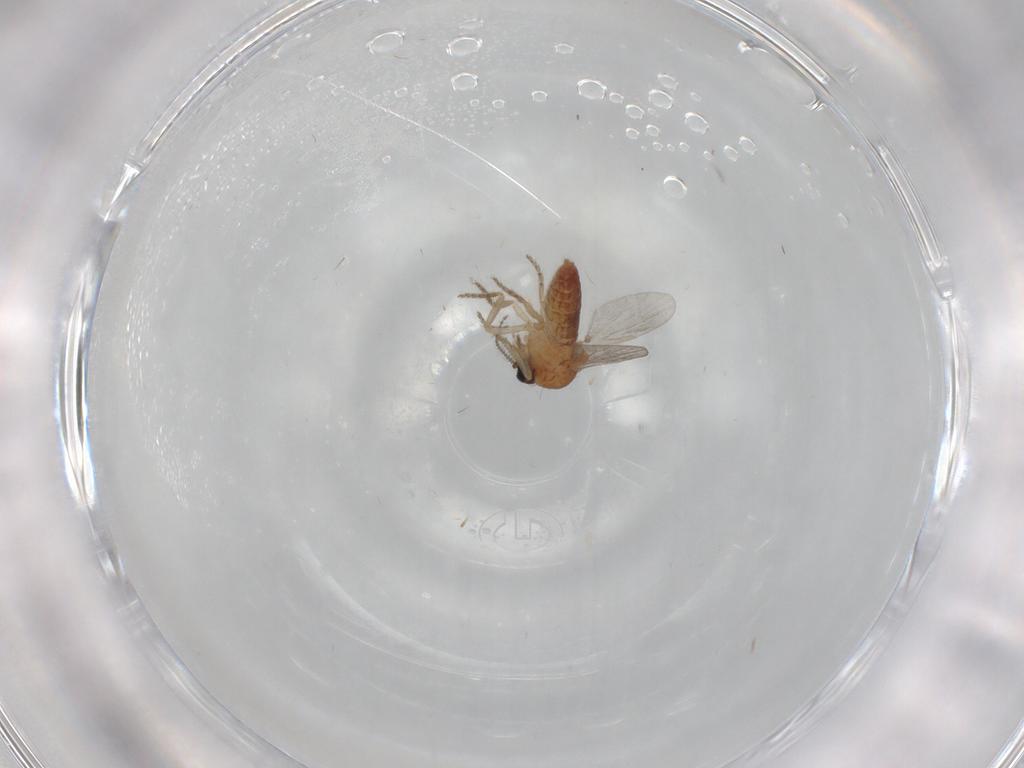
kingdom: Animalia
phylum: Arthropoda
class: Insecta
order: Diptera
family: Ceratopogonidae
